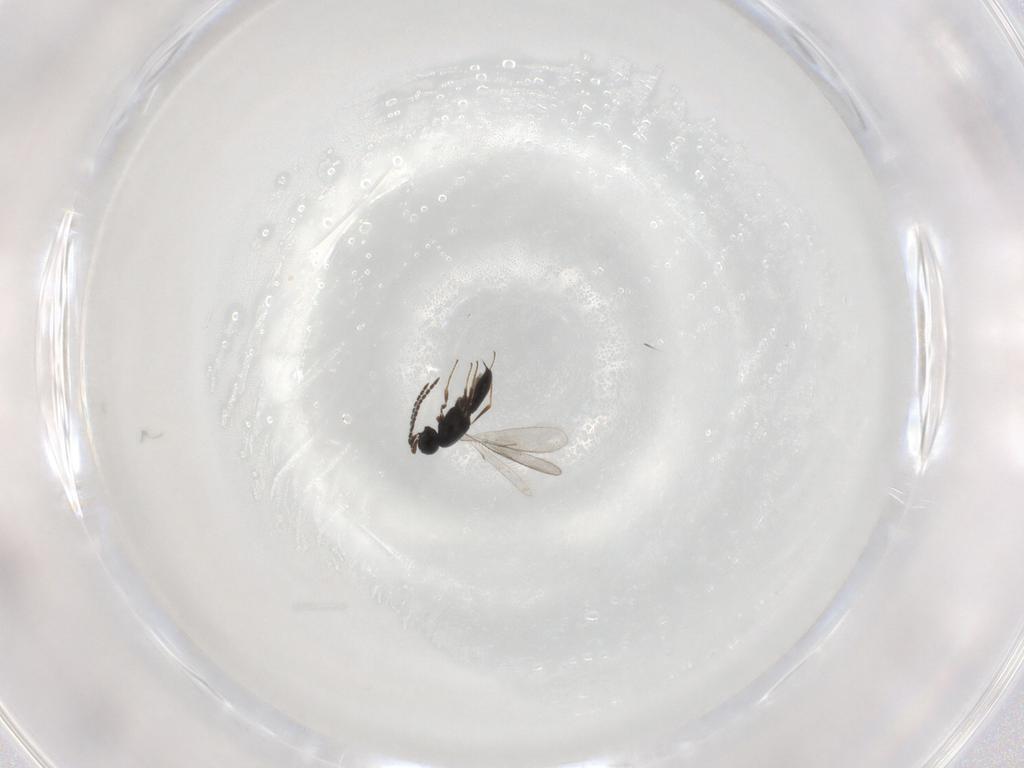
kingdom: Animalia
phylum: Arthropoda
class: Insecta
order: Hymenoptera
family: Scelionidae
